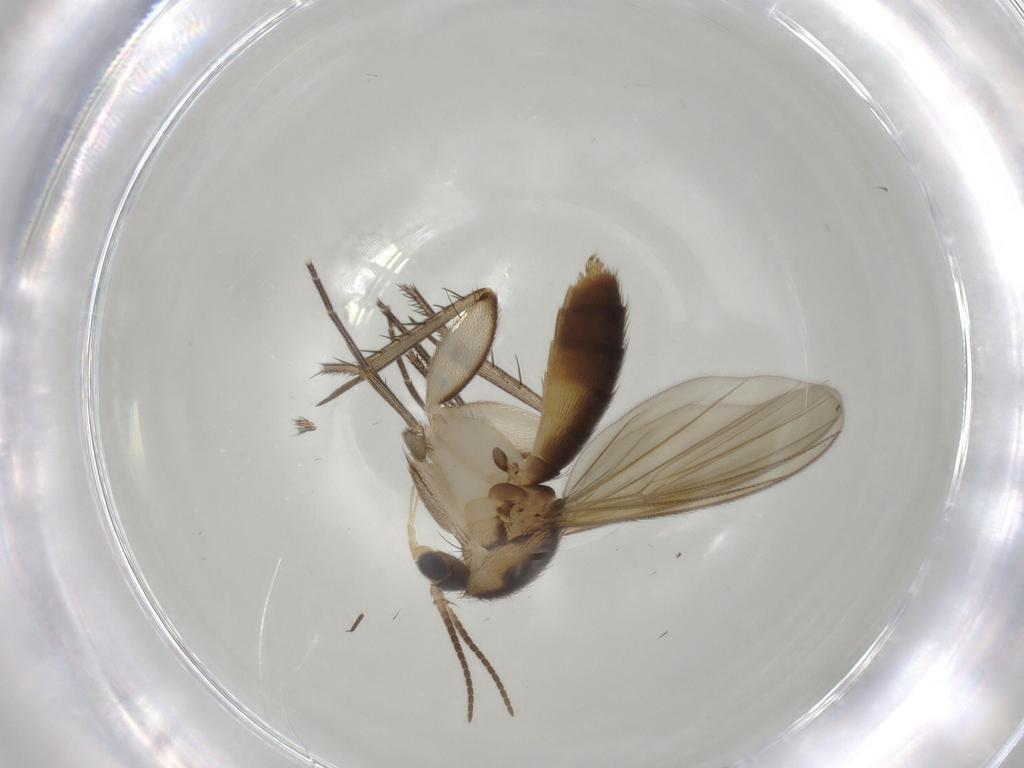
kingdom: Animalia
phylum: Arthropoda
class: Insecta
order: Diptera
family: Mycetophilidae
